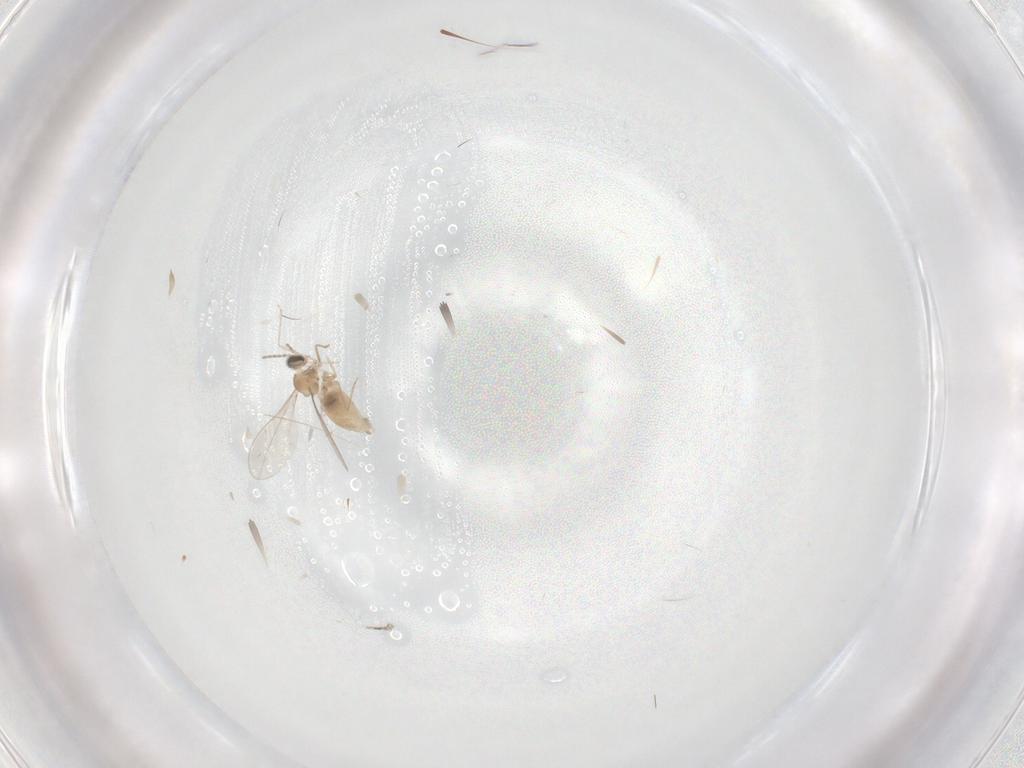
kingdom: Animalia
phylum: Arthropoda
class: Insecta
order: Diptera
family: Cecidomyiidae
